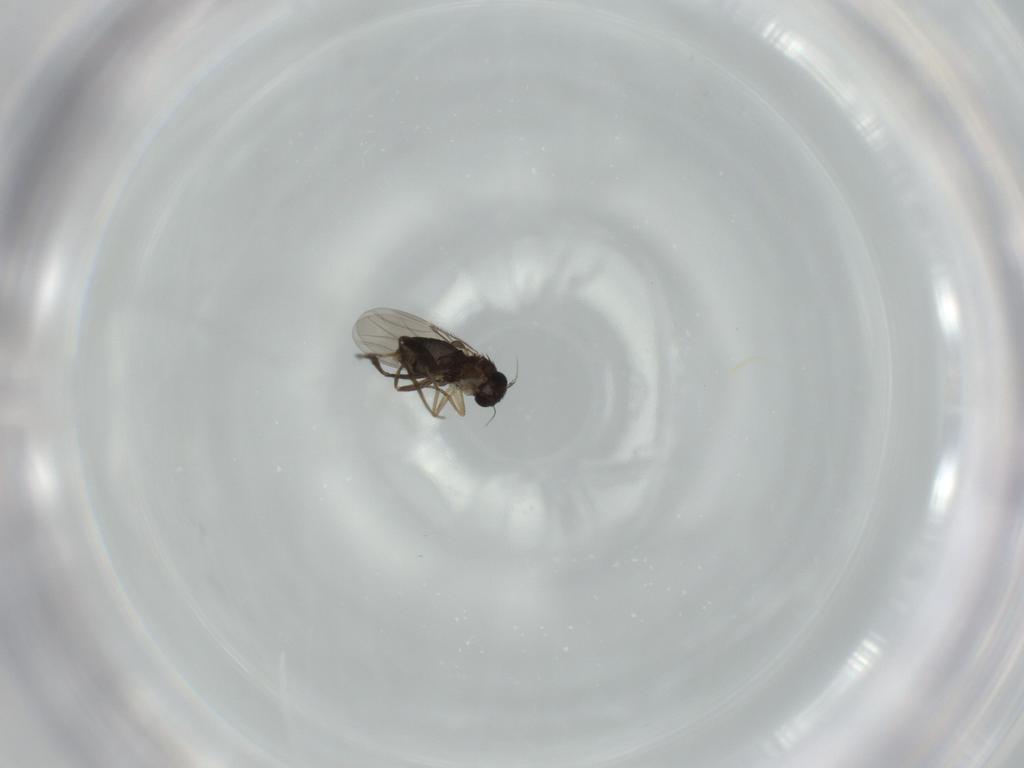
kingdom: Animalia
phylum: Arthropoda
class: Insecta
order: Diptera
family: Phoridae
